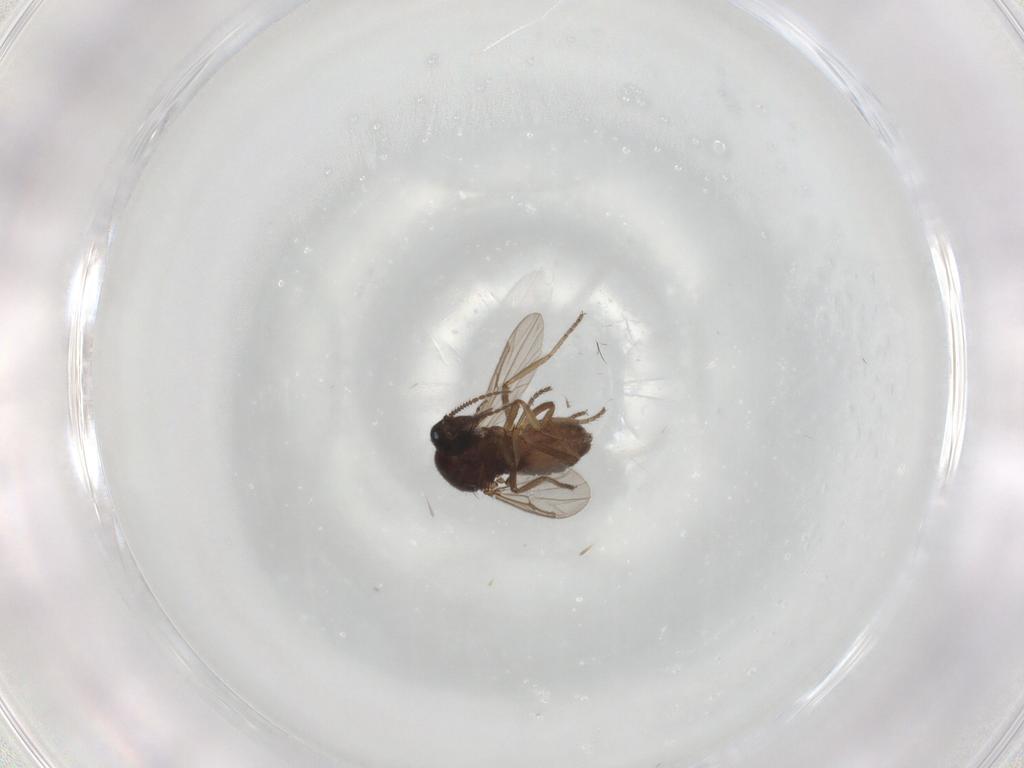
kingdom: Animalia
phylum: Arthropoda
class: Insecta
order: Diptera
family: Ceratopogonidae
